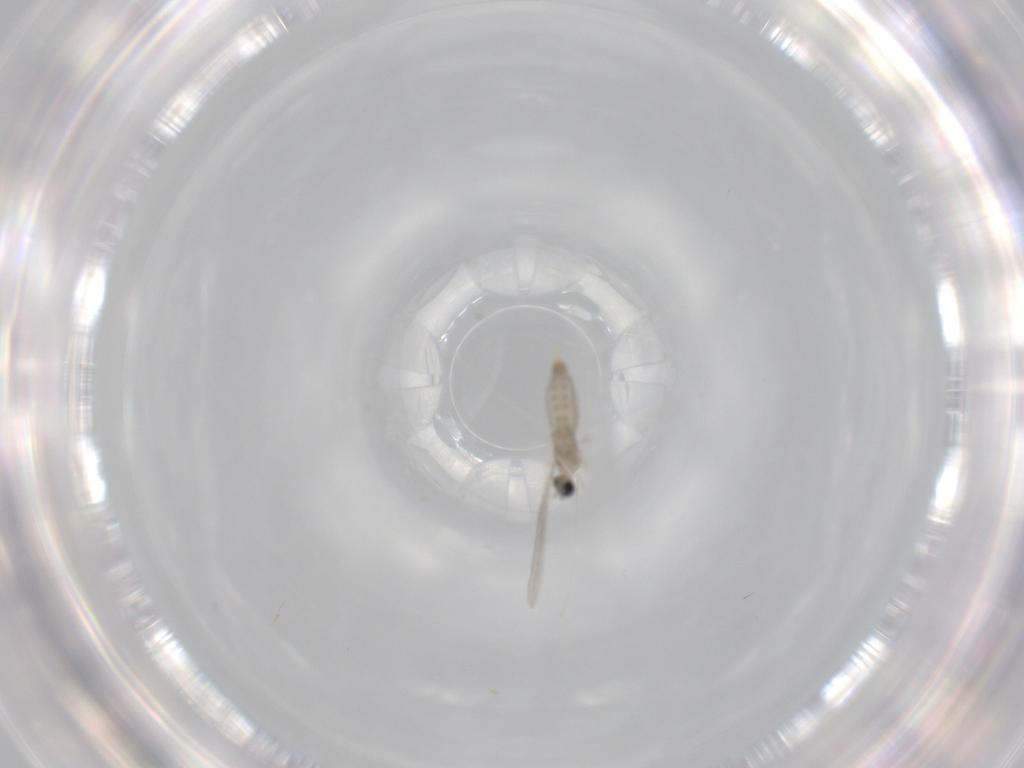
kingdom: Animalia
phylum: Arthropoda
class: Insecta
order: Diptera
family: Cecidomyiidae
